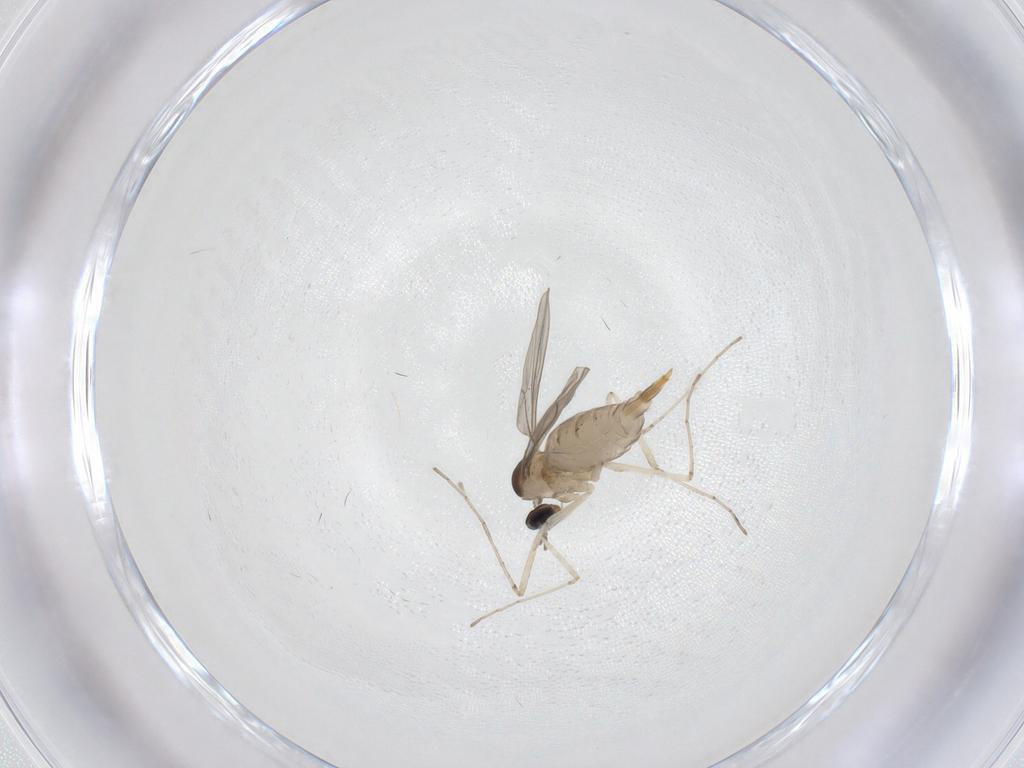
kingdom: Animalia
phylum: Arthropoda
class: Insecta
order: Diptera
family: Cecidomyiidae
